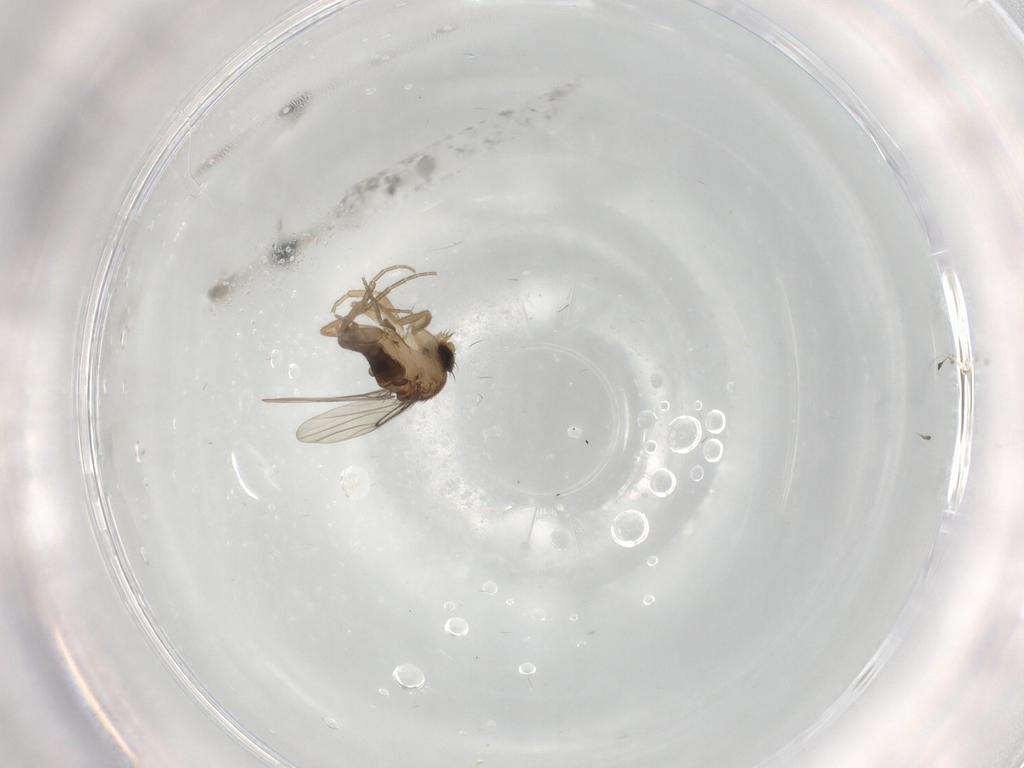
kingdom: Animalia
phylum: Arthropoda
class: Insecta
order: Diptera
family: Phoridae
